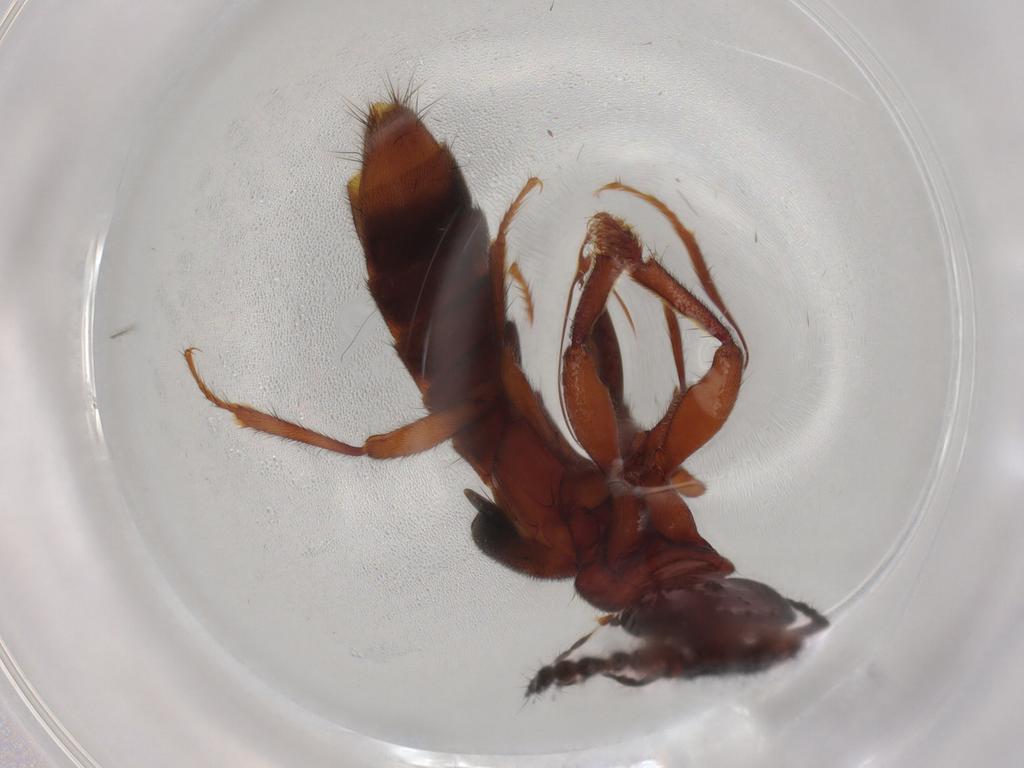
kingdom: Animalia
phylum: Arthropoda
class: Insecta
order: Coleoptera
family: Staphylinidae
